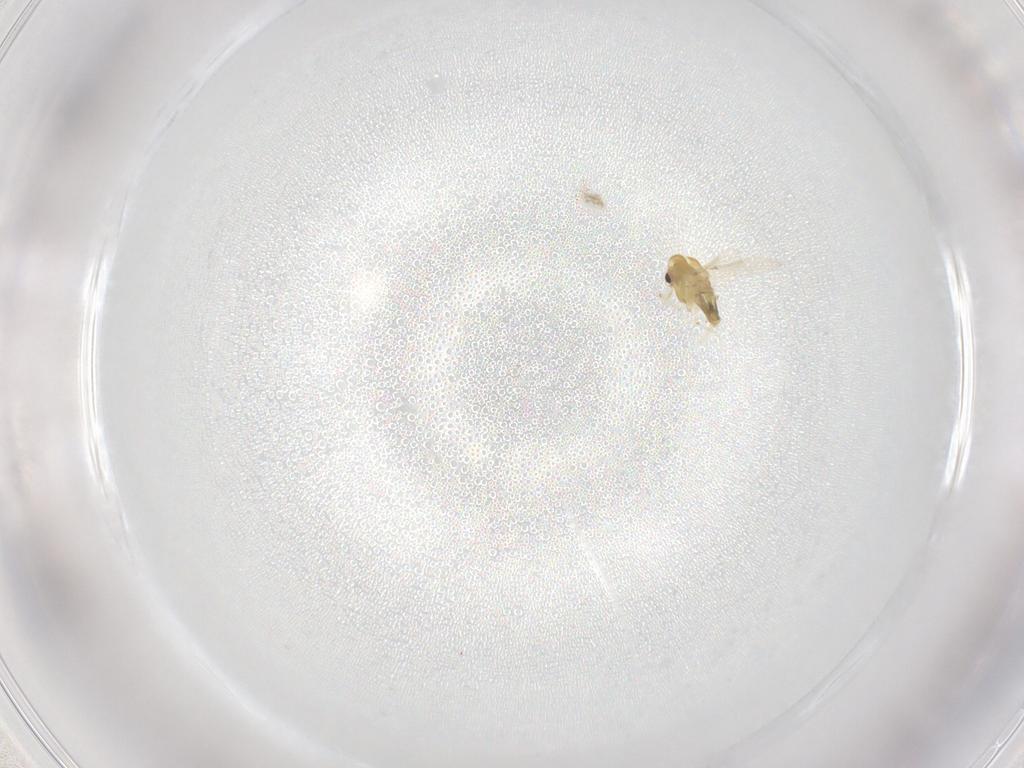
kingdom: Animalia
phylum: Arthropoda
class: Insecta
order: Diptera
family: Chironomidae
